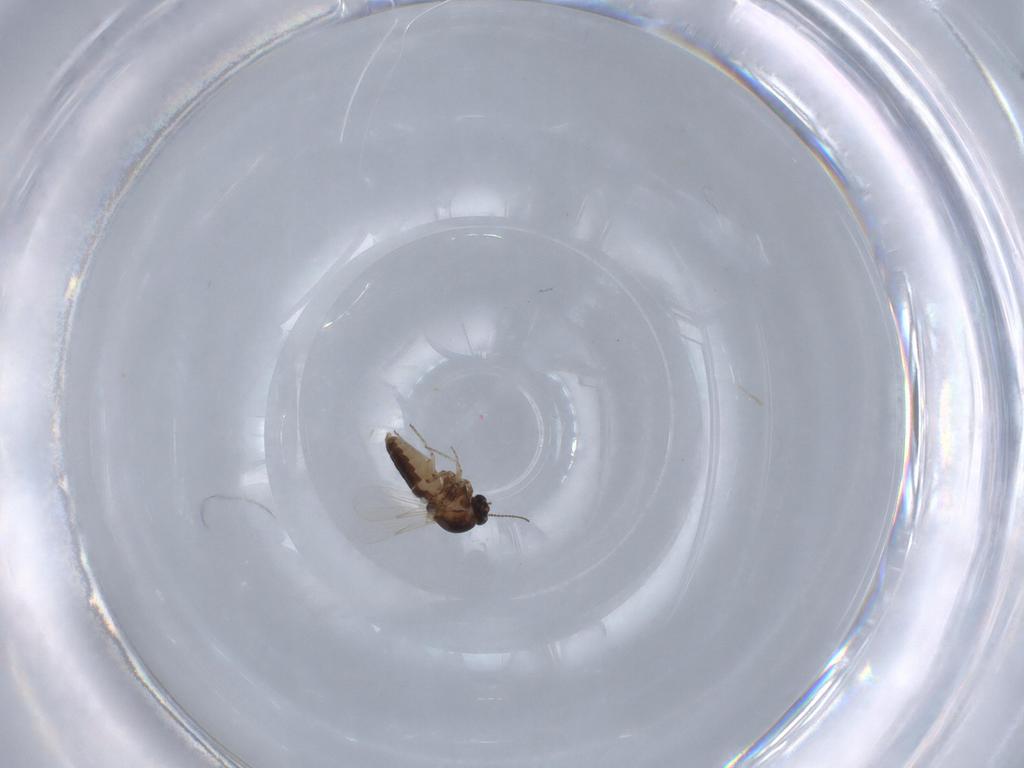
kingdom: Animalia
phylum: Arthropoda
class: Insecta
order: Diptera
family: Ceratopogonidae
